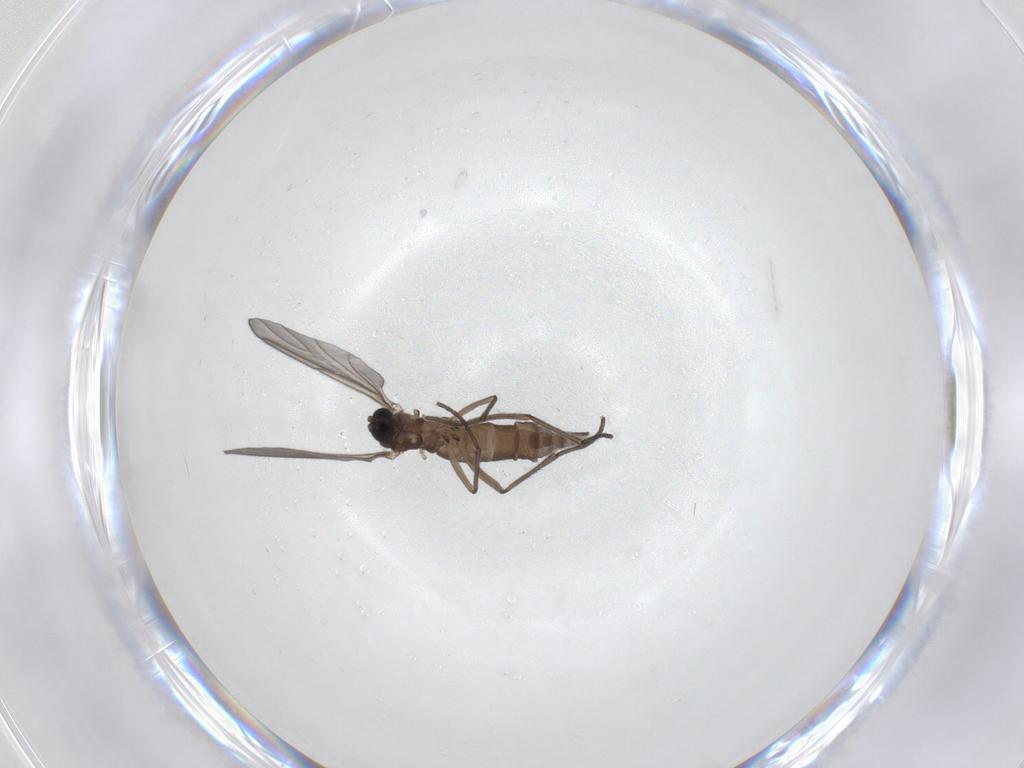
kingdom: Animalia
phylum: Arthropoda
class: Insecta
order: Diptera
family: Sciaridae
